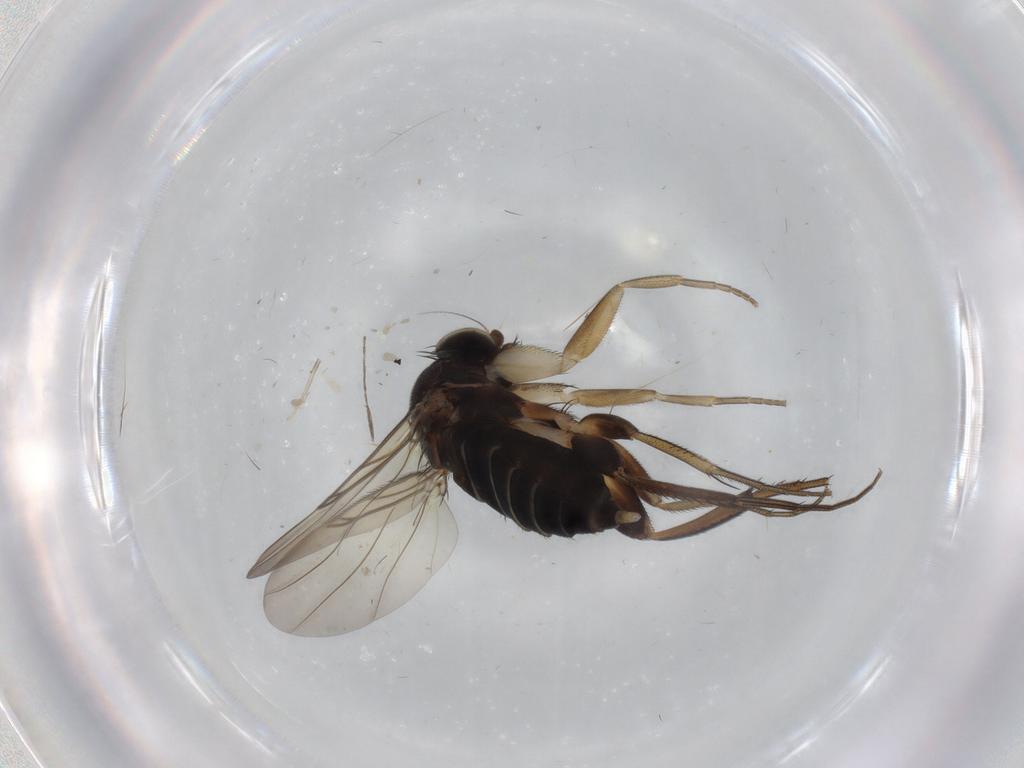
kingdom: Animalia
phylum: Arthropoda
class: Insecta
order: Diptera
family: Phoridae
